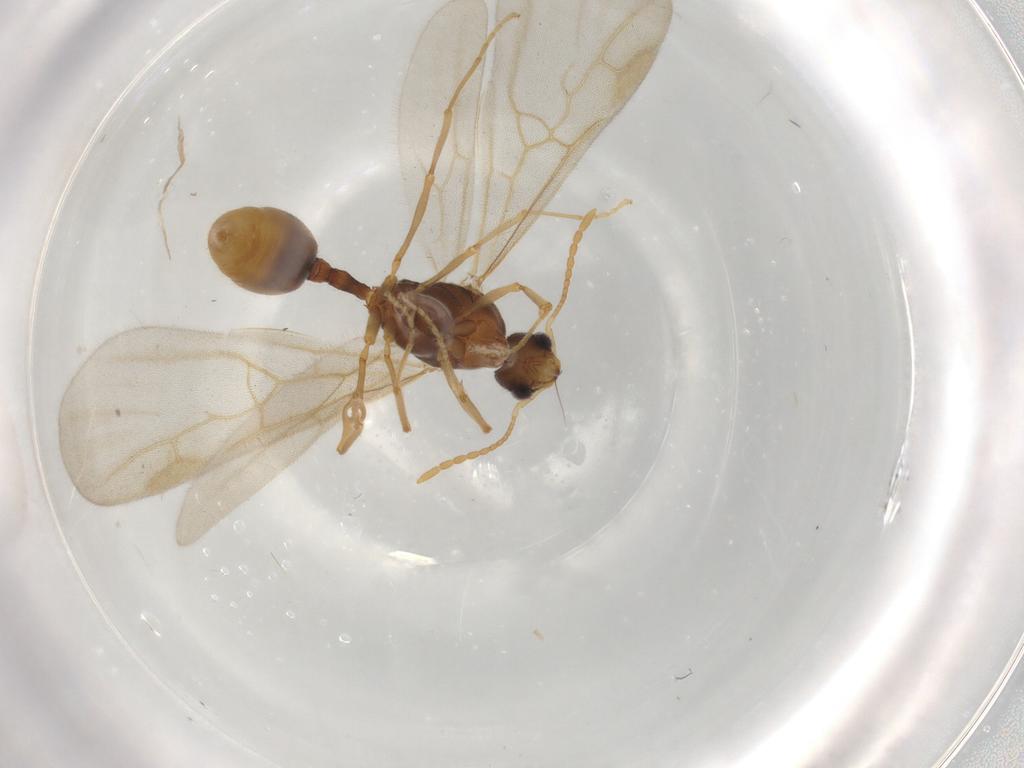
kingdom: Animalia
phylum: Arthropoda
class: Insecta
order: Hymenoptera
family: Formicidae
